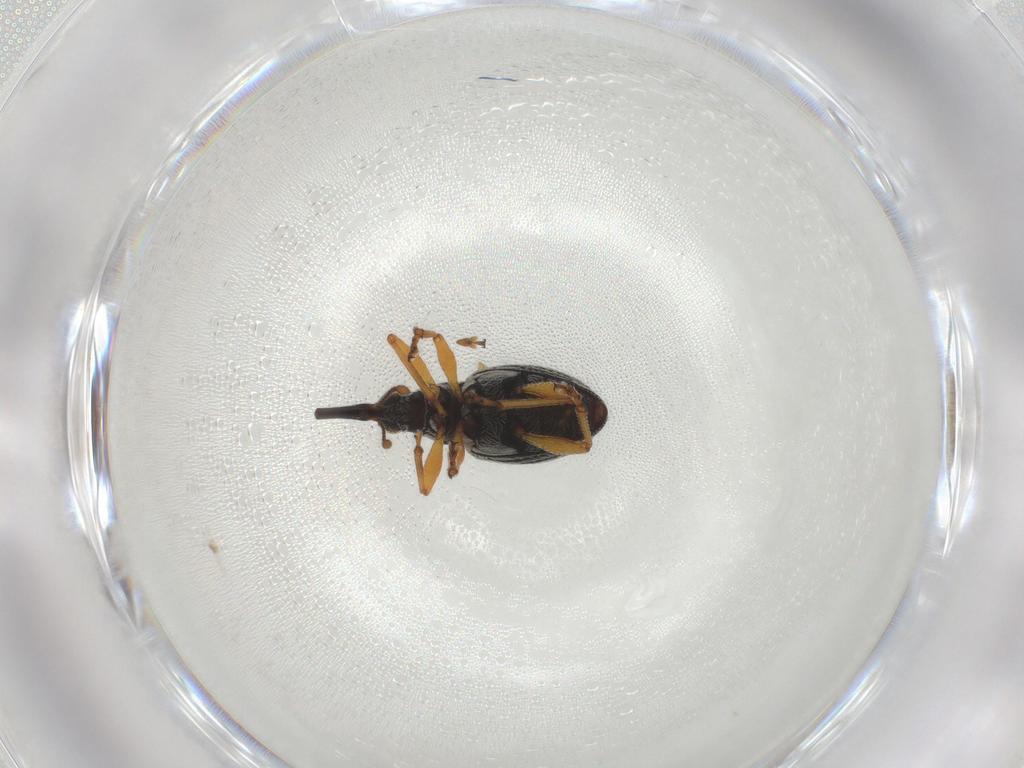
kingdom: Animalia
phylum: Arthropoda
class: Insecta
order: Coleoptera
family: Brentidae
